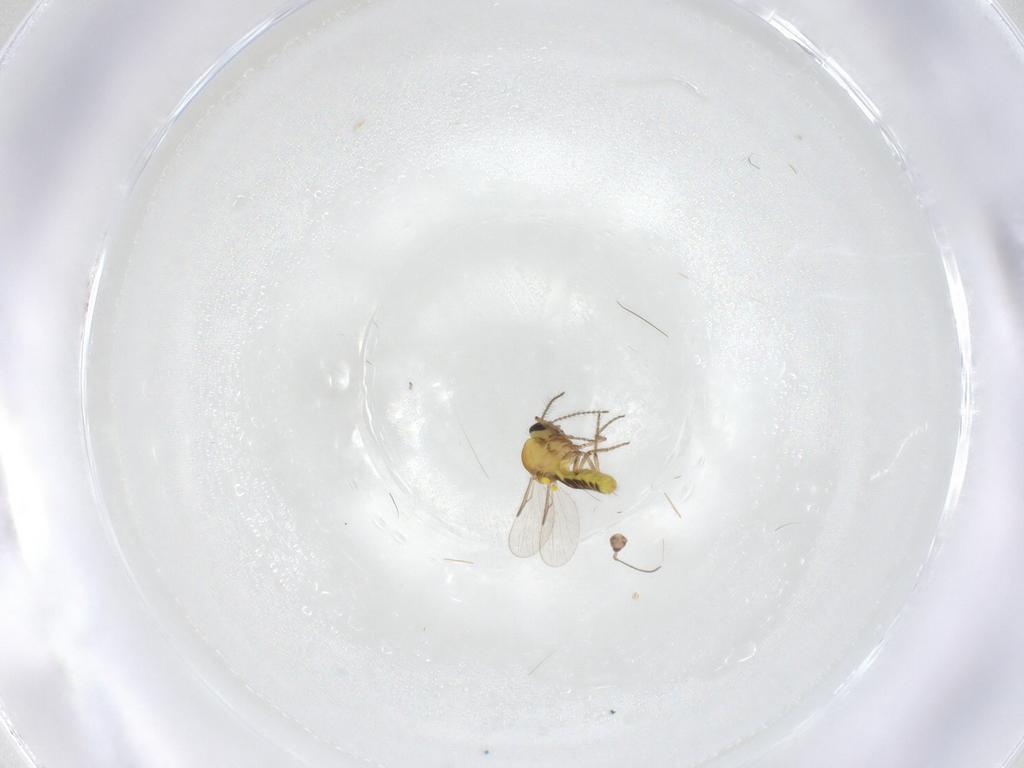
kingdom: Animalia
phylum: Arthropoda
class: Insecta
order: Diptera
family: Ceratopogonidae
